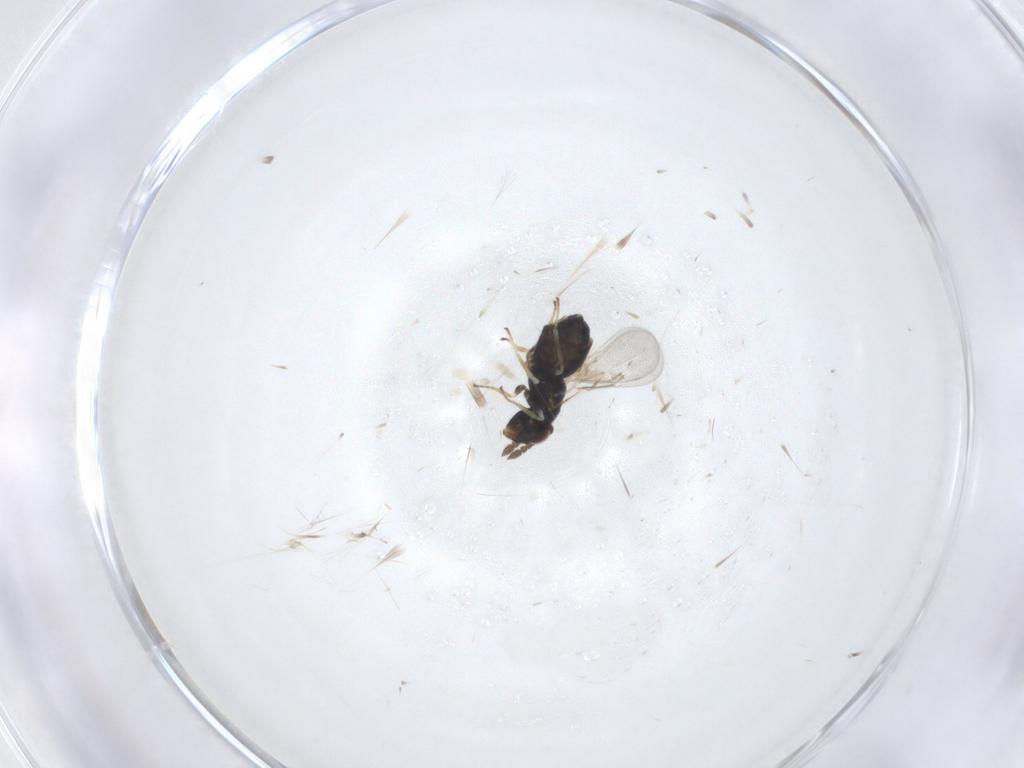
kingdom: Animalia
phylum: Arthropoda
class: Insecta
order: Hymenoptera
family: Eulophidae
